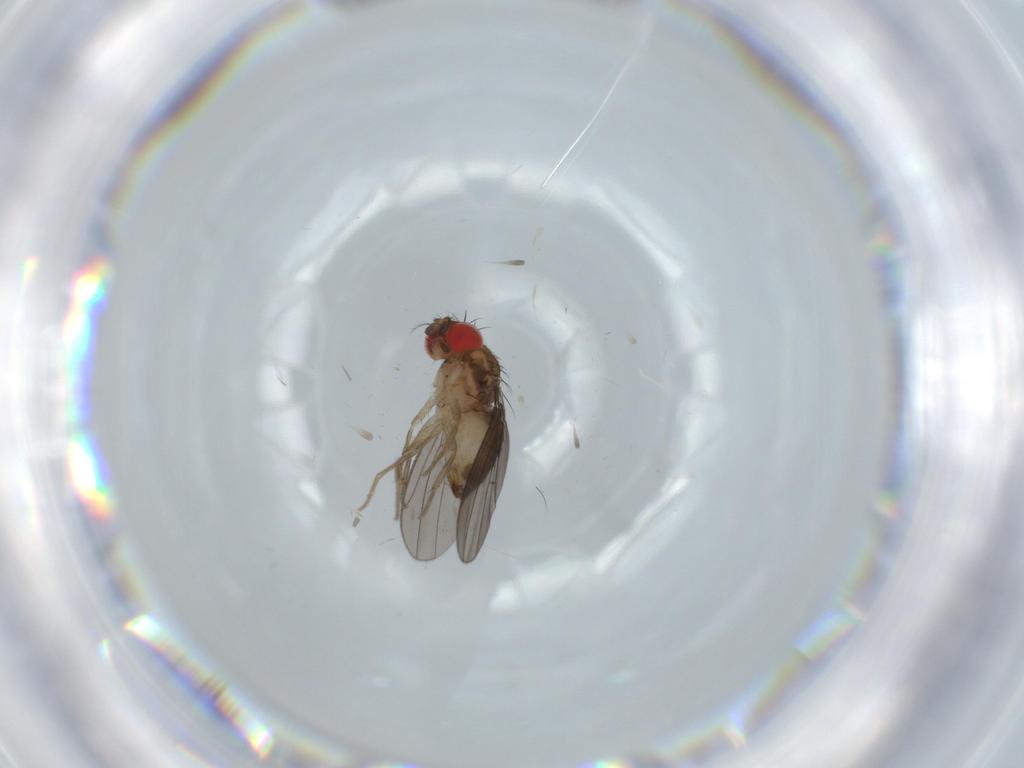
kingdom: Animalia
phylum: Arthropoda
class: Insecta
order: Diptera
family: Drosophilidae
